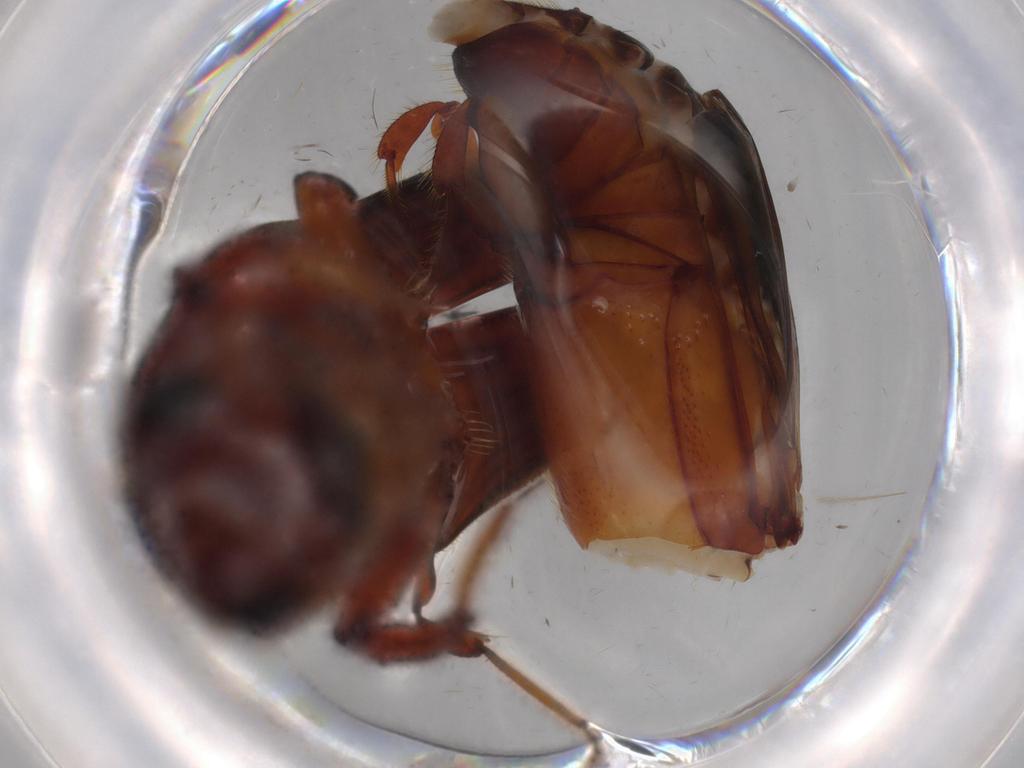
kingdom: Animalia
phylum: Arthropoda
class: Insecta
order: Coleoptera
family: Curculionidae
